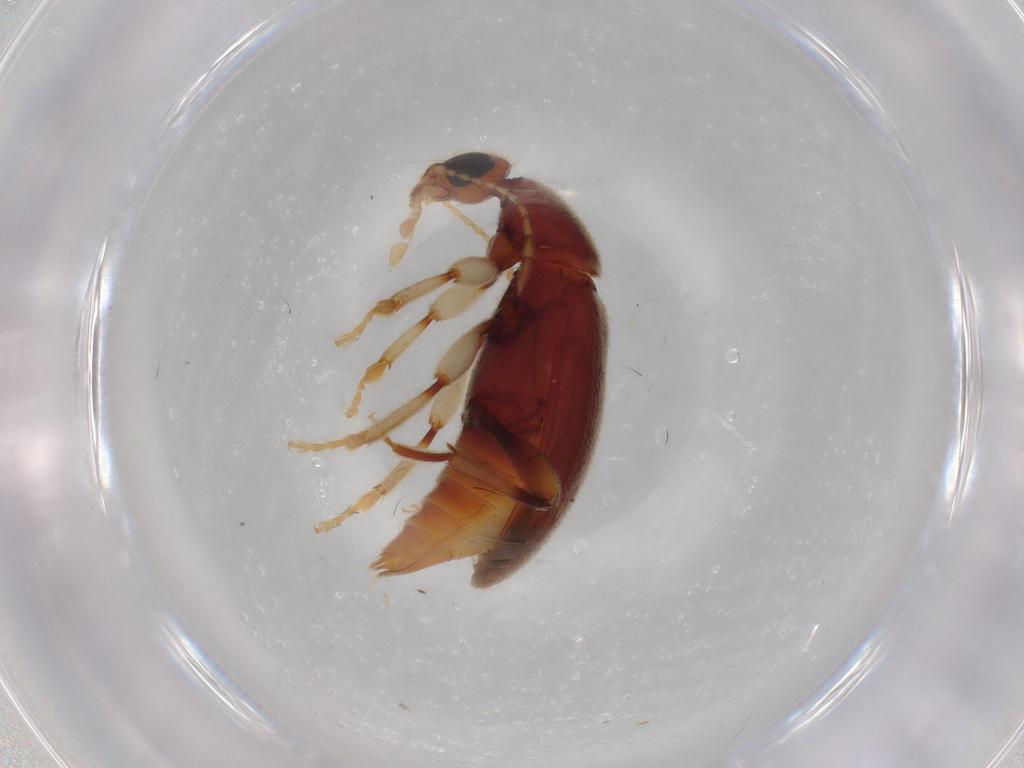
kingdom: Animalia
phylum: Arthropoda
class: Insecta
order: Coleoptera
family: Anthicidae
